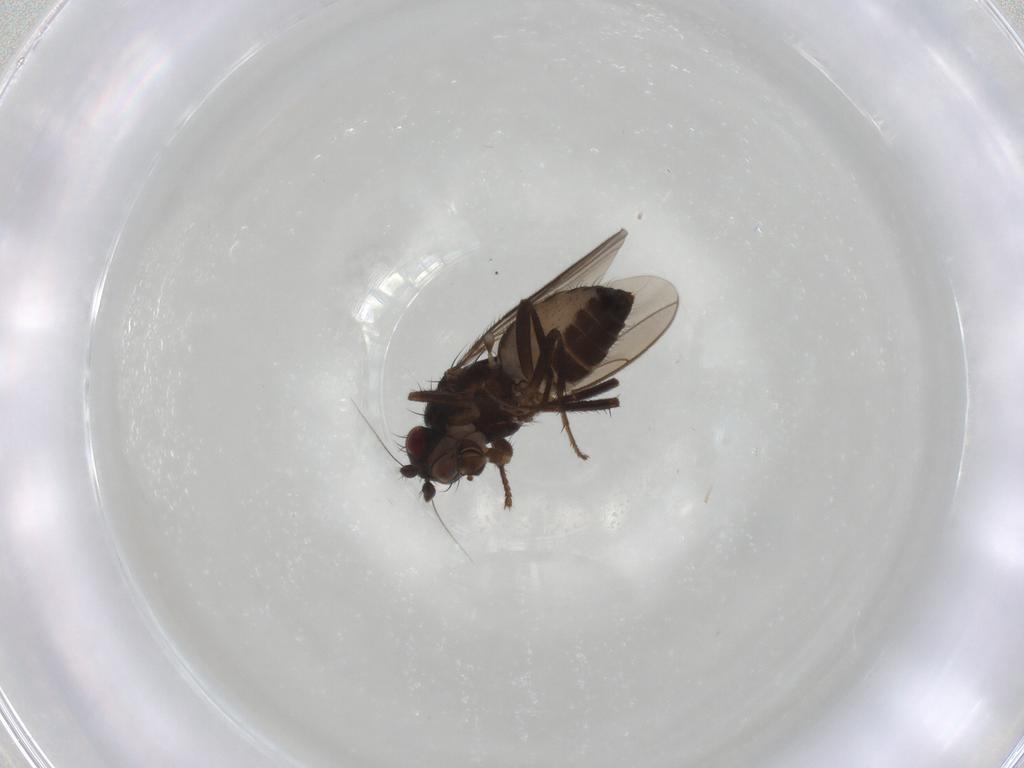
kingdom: Animalia
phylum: Arthropoda
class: Insecta
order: Diptera
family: Sphaeroceridae
